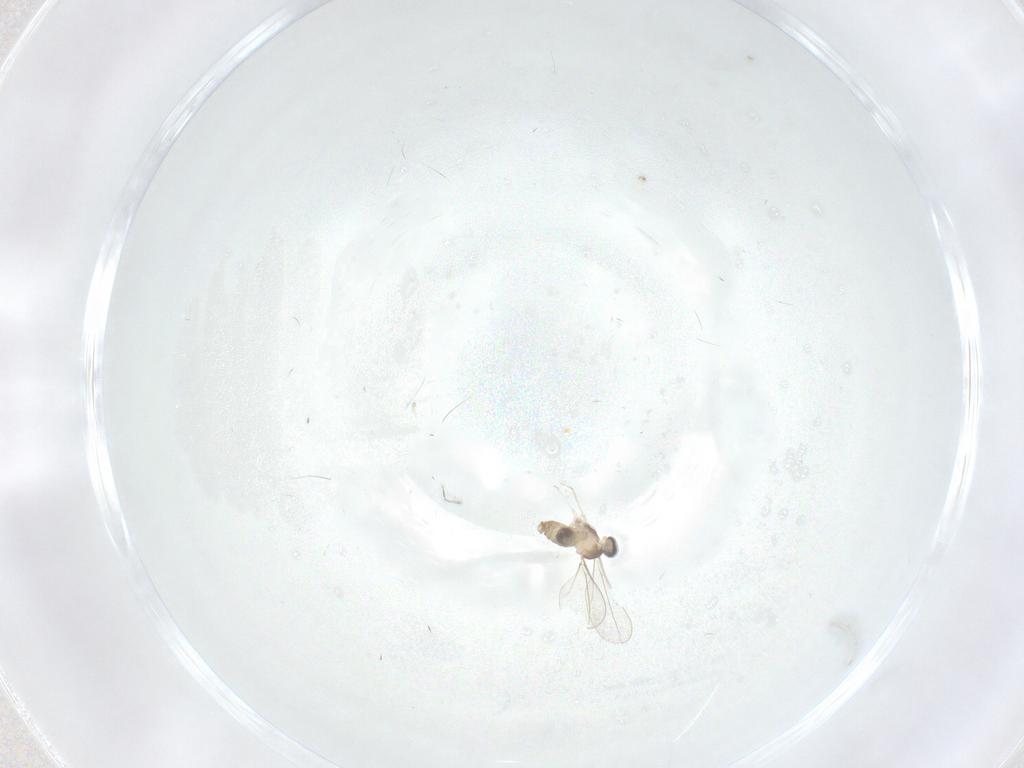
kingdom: Animalia
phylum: Arthropoda
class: Insecta
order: Diptera
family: Cecidomyiidae
